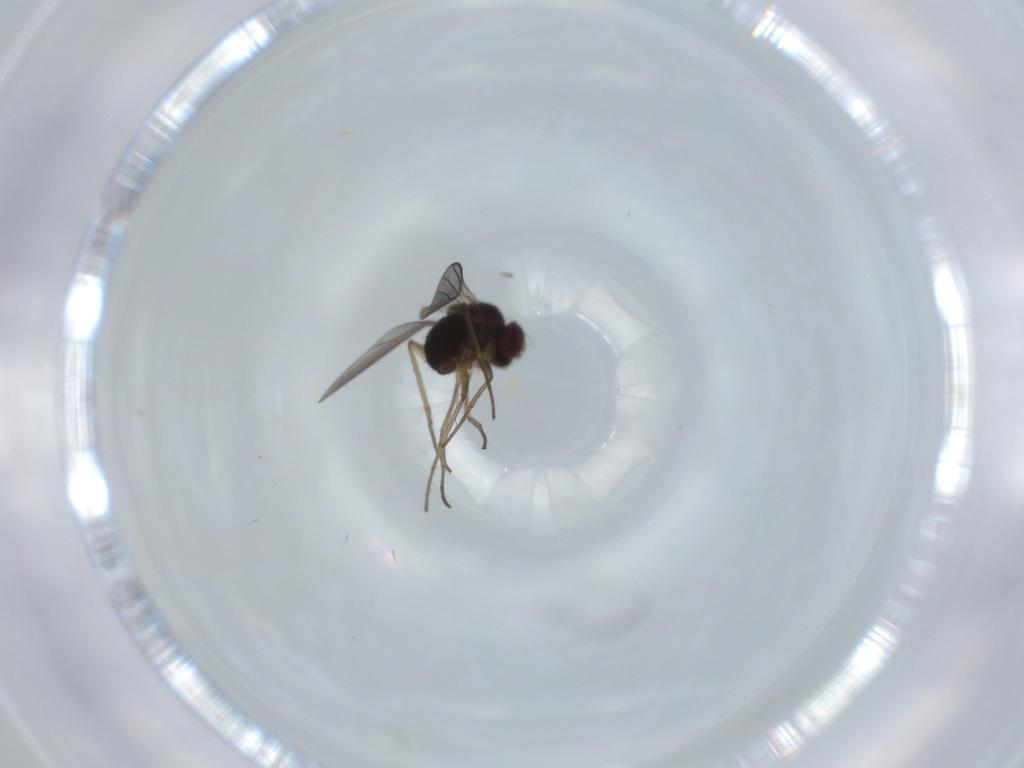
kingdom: Animalia
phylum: Arthropoda
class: Insecta
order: Diptera
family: Dolichopodidae
